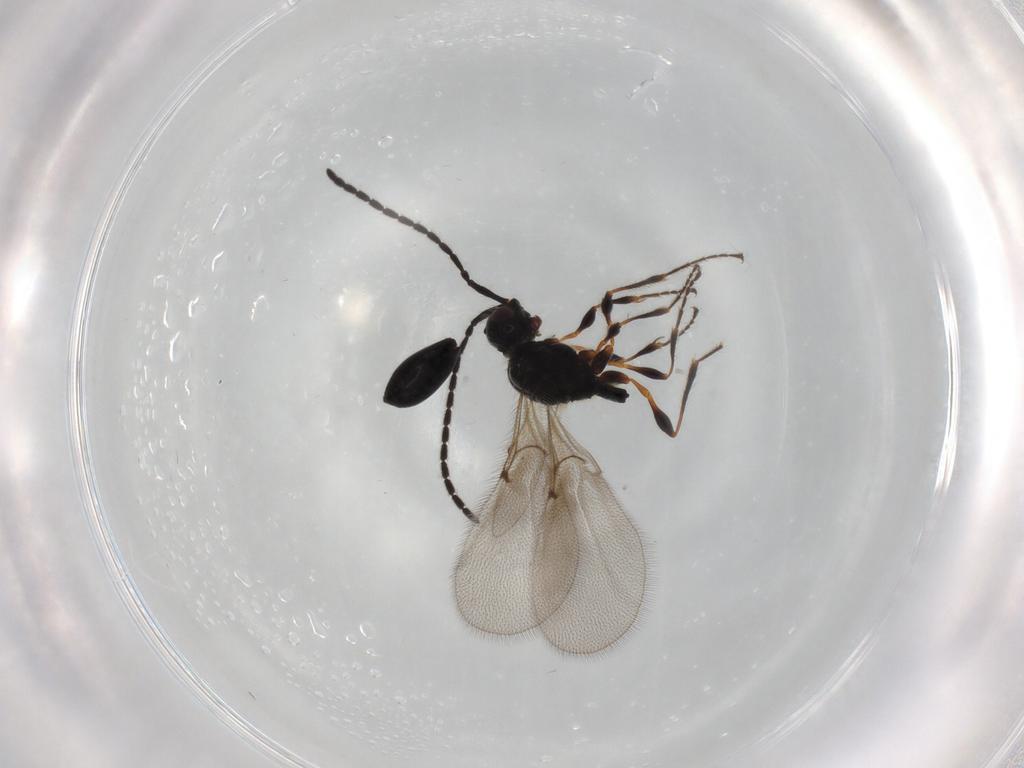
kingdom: Animalia
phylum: Arthropoda
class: Insecta
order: Hymenoptera
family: Diapriidae
